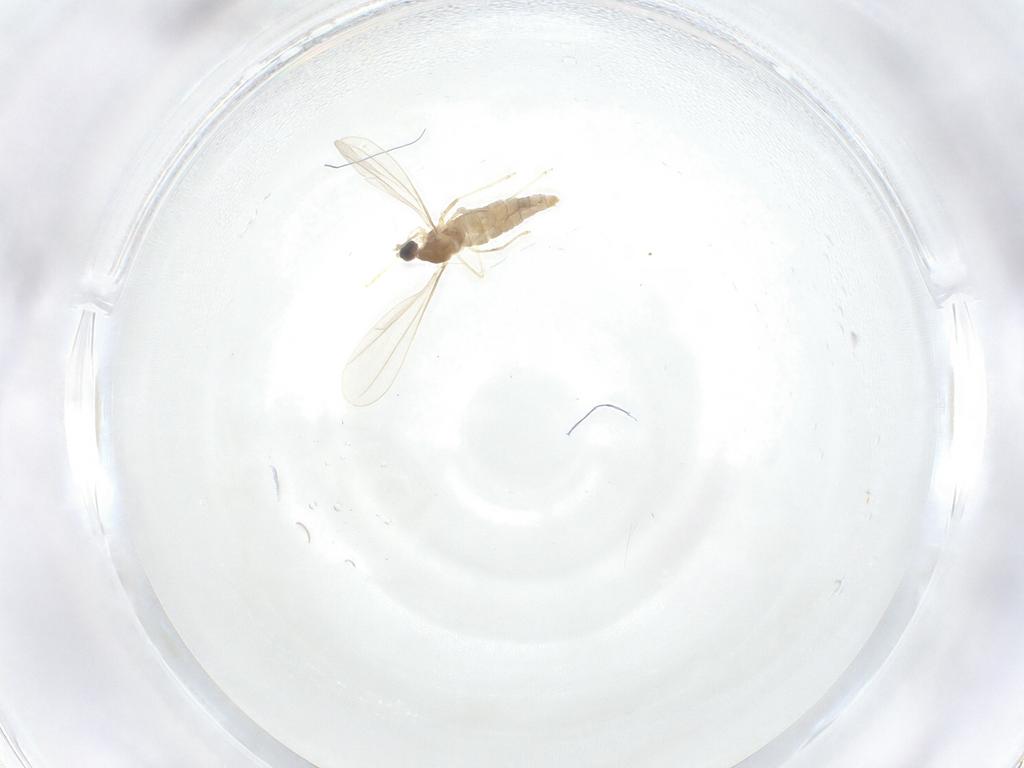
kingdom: Animalia
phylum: Arthropoda
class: Insecta
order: Diptera
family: Cecidomyiidae
